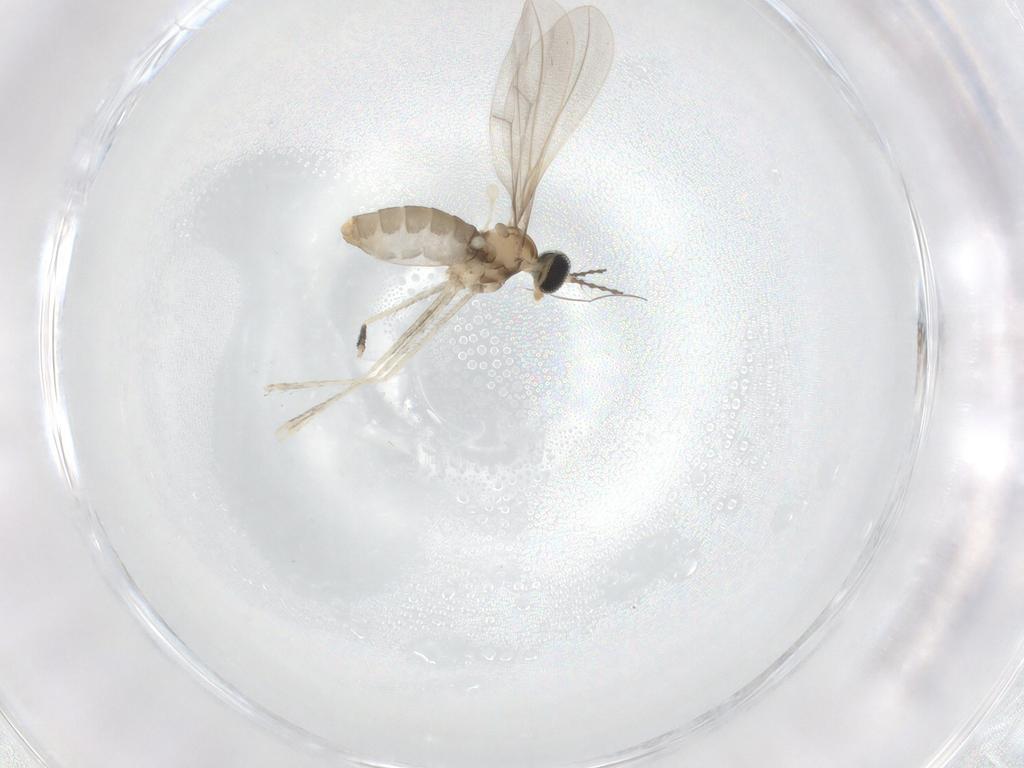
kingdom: Animalia
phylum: Arthropoda
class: Insecta
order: Diptera
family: Cecidomyiidae
